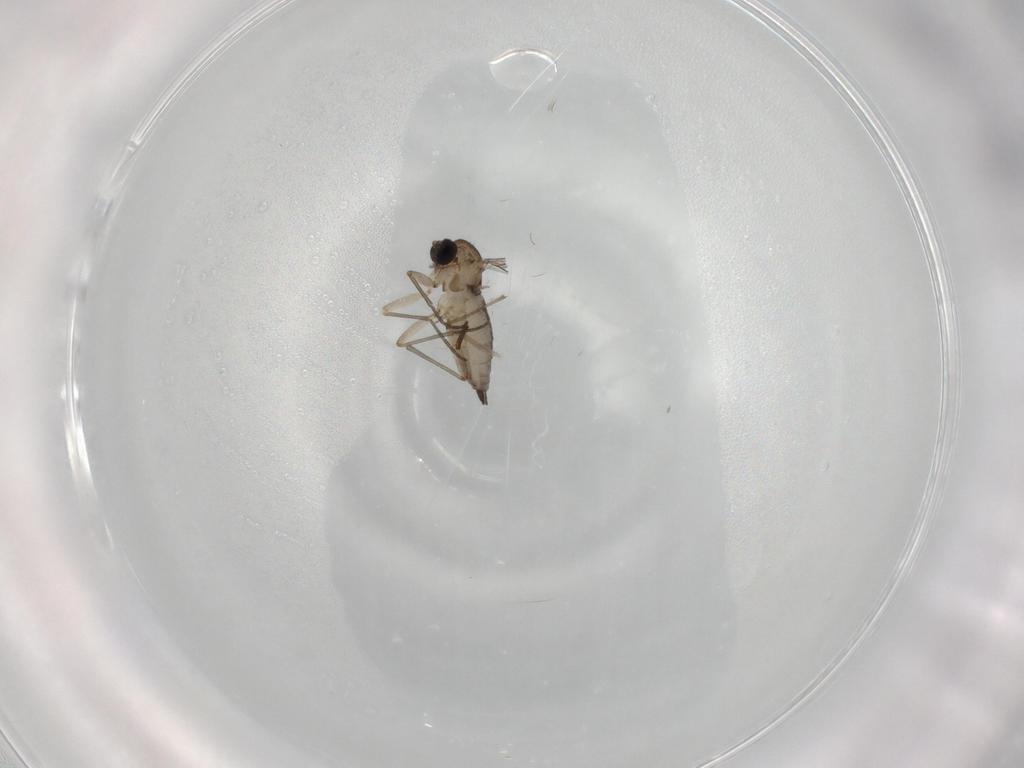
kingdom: Animalia
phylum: Arthropoda
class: Insecta
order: Diptera
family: Sciaridae
